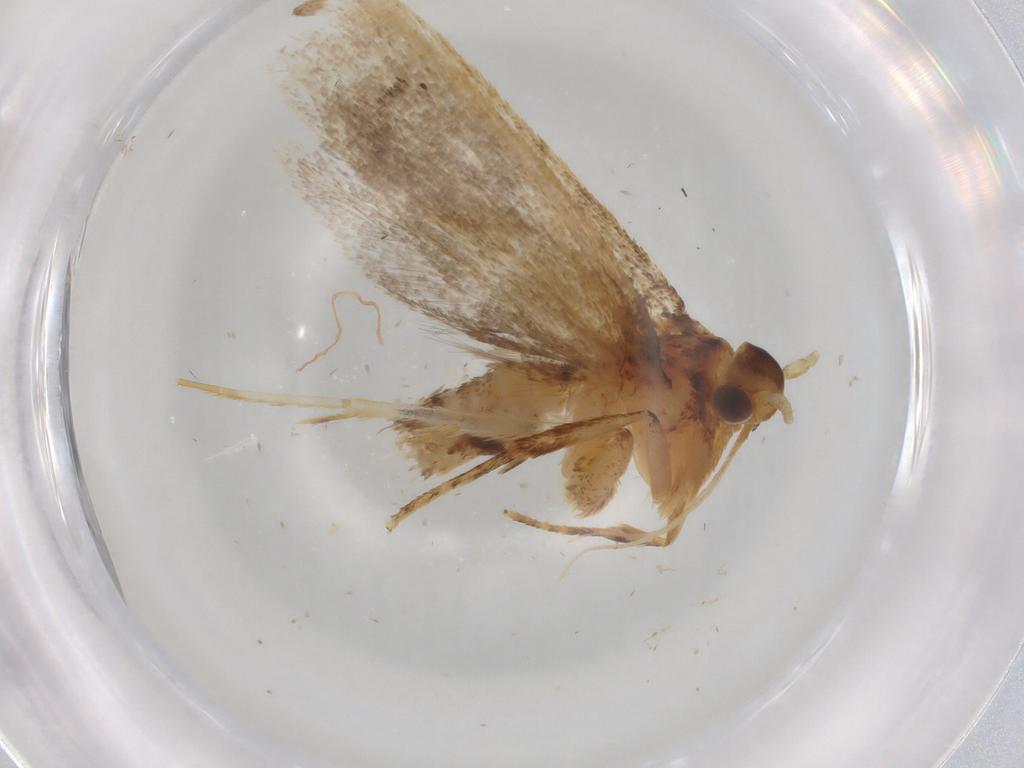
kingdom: Animalia
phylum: Arthropoda
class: Insecta
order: Lepidoptera
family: Lecithoceridae
